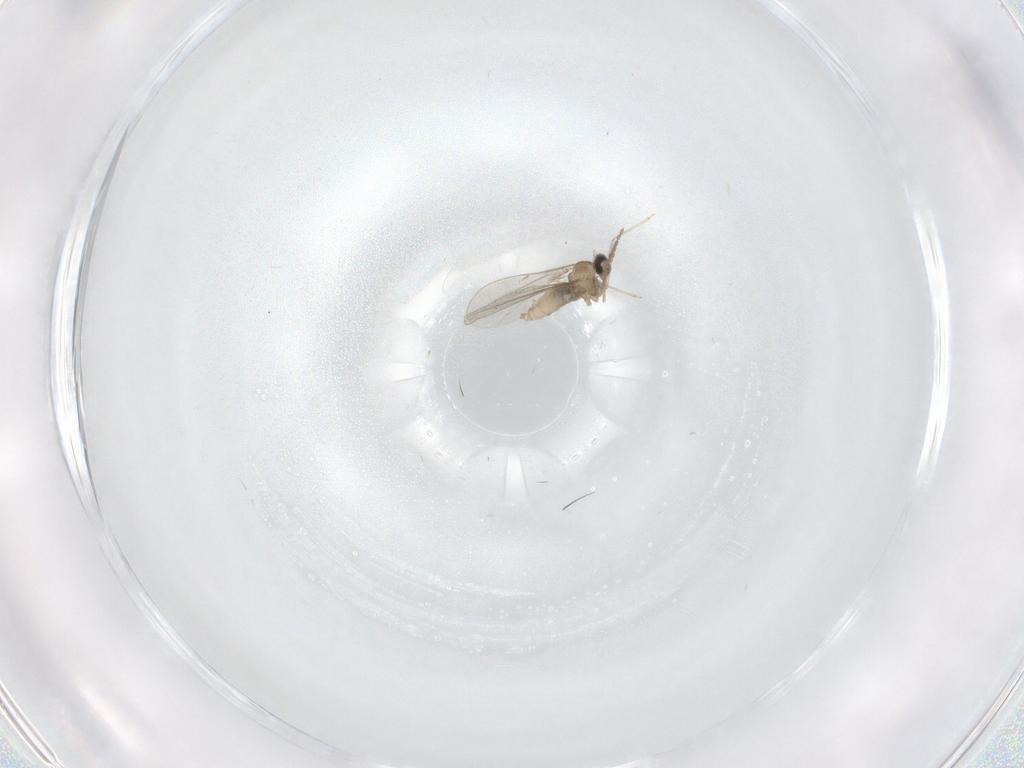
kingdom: Animalia
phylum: Arthropoda
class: Insecta
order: Diptera
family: Cecidomyiidae
